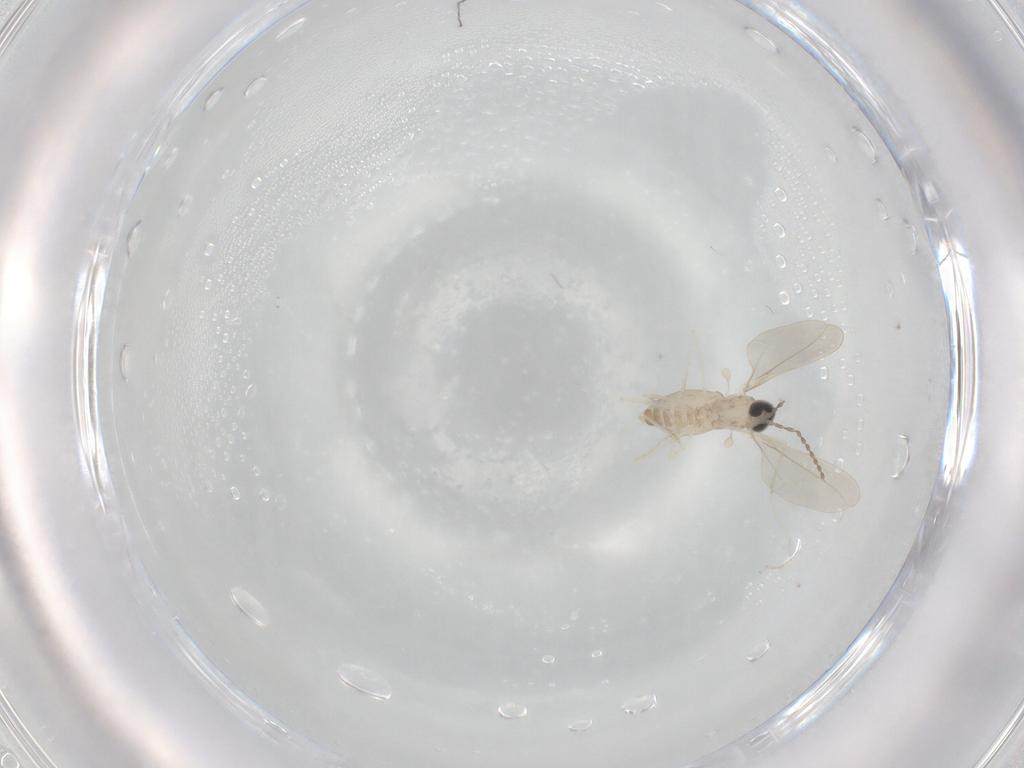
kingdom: Animalia
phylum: Arthropoda
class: Insecta
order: Diptera
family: Cecidomyiidae
